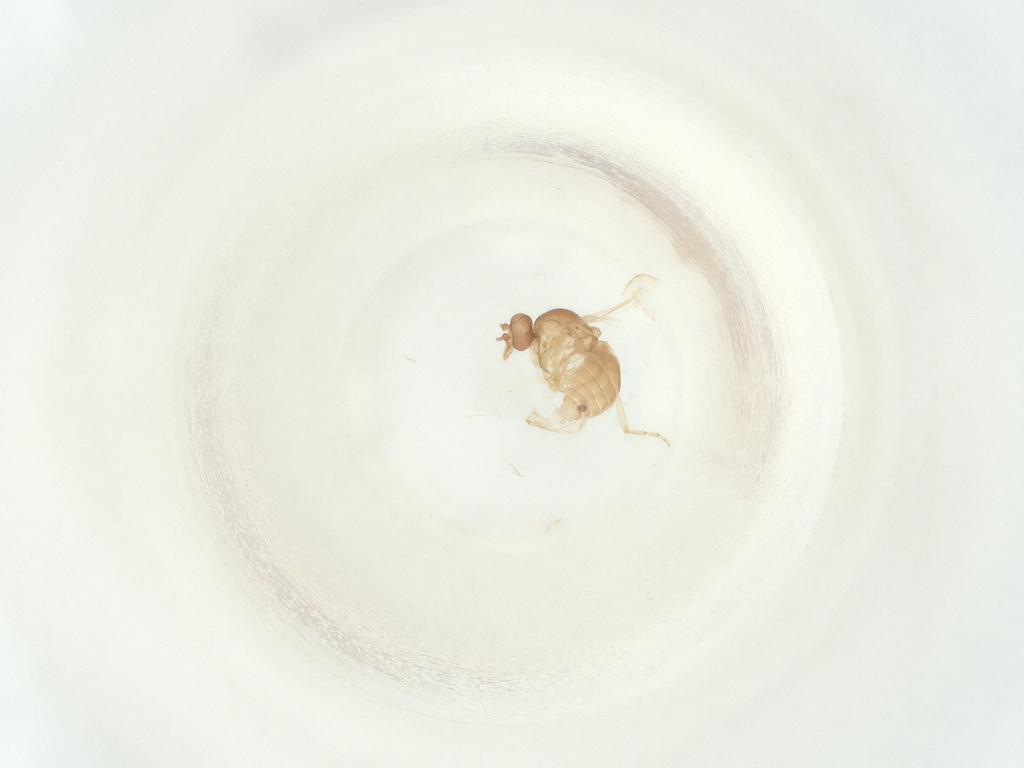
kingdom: Animalia
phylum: Arthropoda
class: Insecta
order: Diptera
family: Ceratopogonidae
